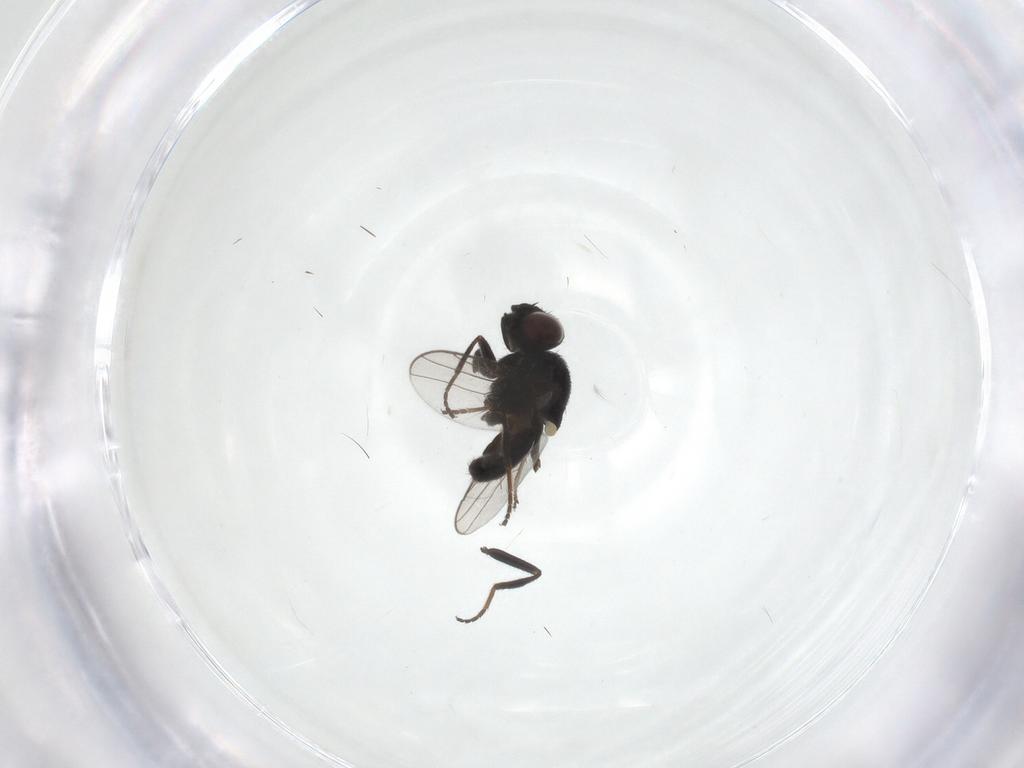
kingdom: Animalia
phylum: Arthropoda
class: Insecta
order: Diptera
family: Chloropidae
